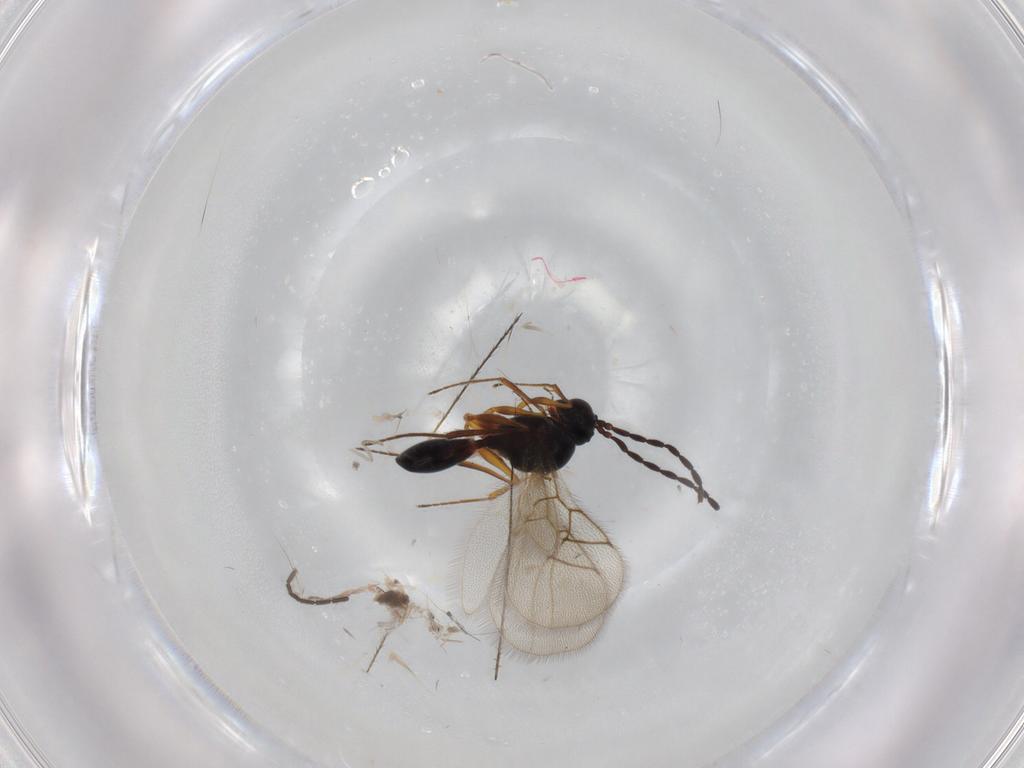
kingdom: Animalia
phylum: Arthropoda
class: Insecta
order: Hymenoptera
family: Figitidae
